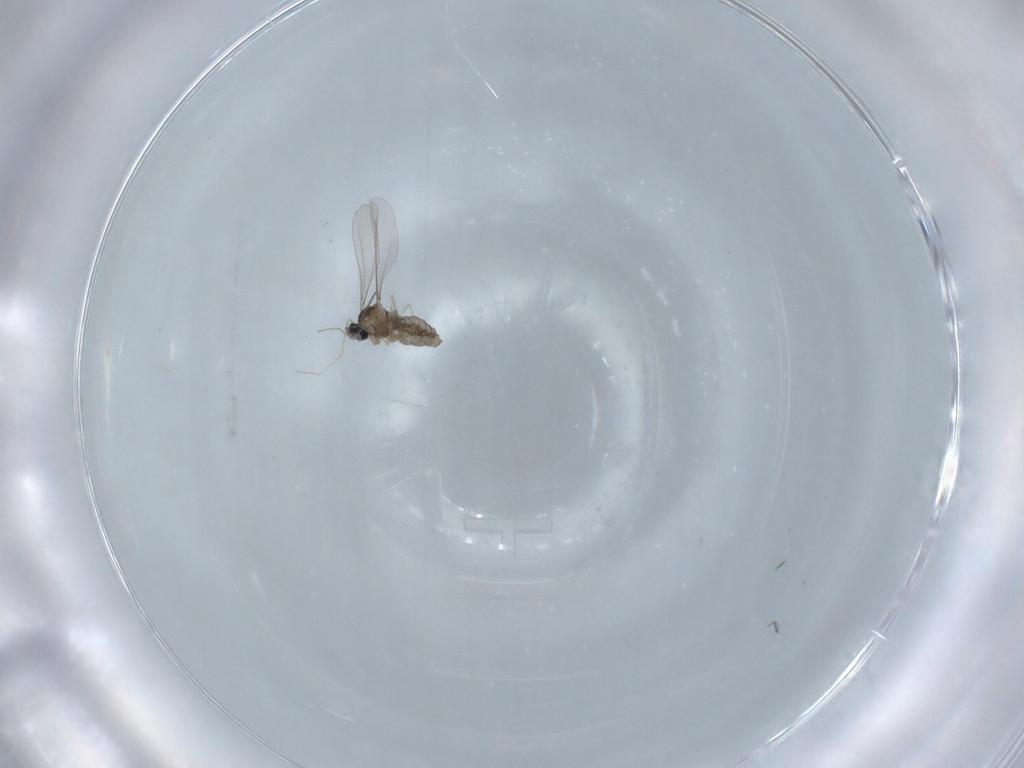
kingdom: Animalia
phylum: Arthropoda
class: Insecta
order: Diptera
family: Cecidomyiidae
